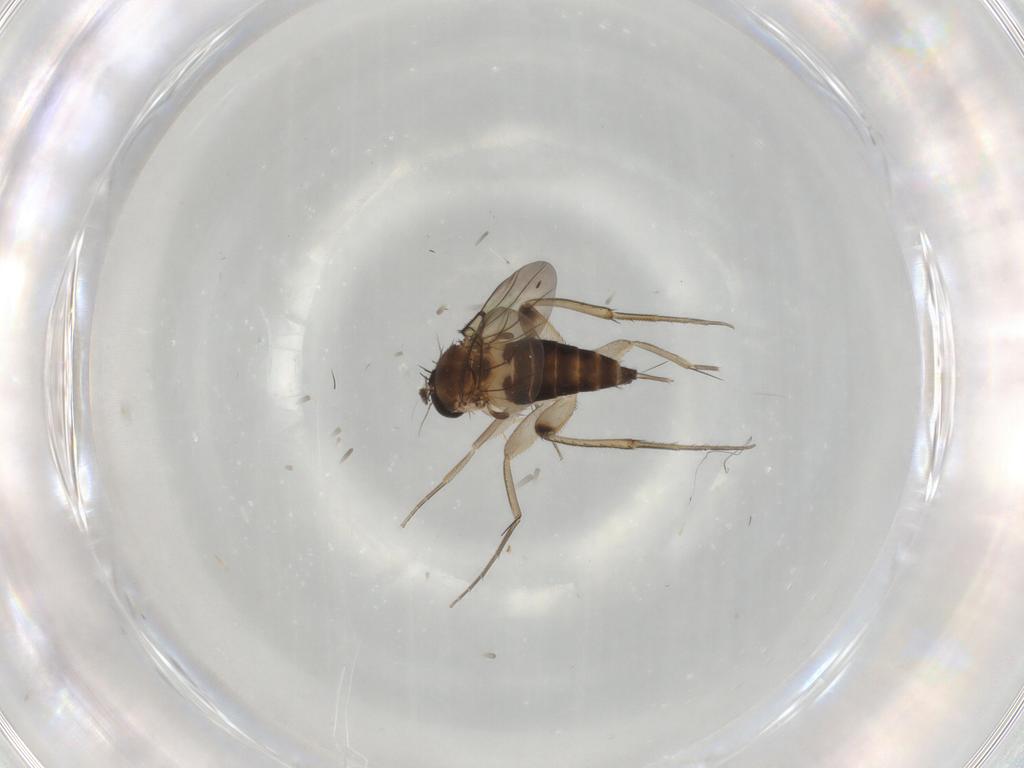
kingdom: Animalia
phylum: Arthropoda
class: Insecta
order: Diptera
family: Phoridae
